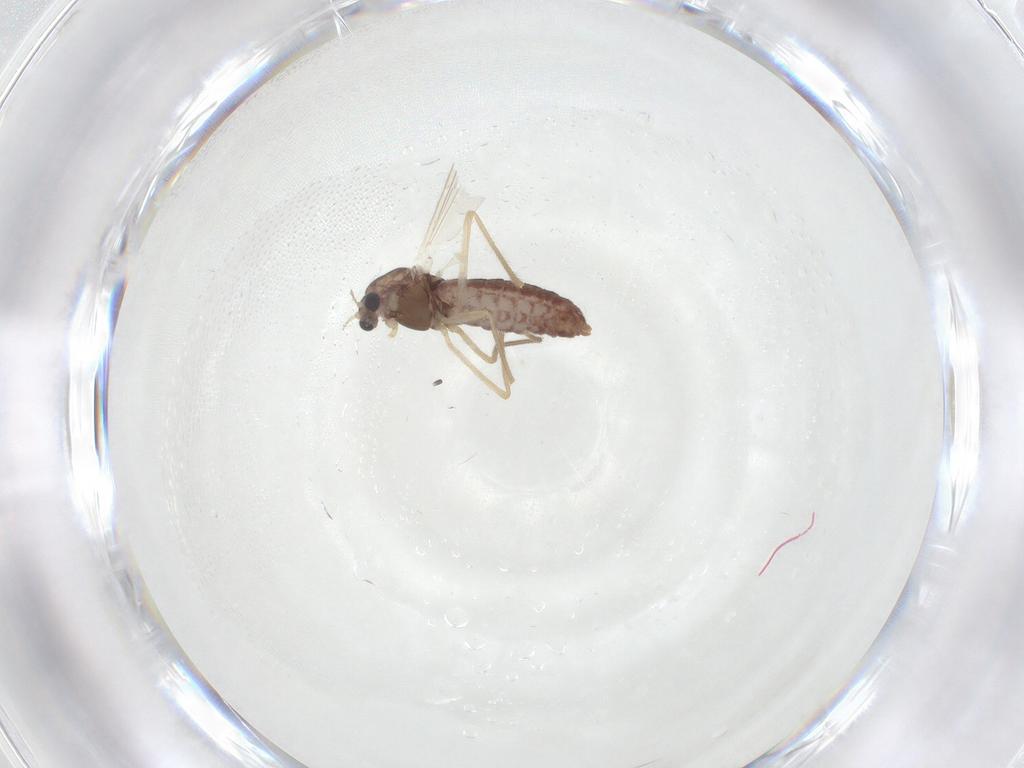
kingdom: Animalia
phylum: Arthropoda
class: Insecta
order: Diptera
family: Chironomidae
